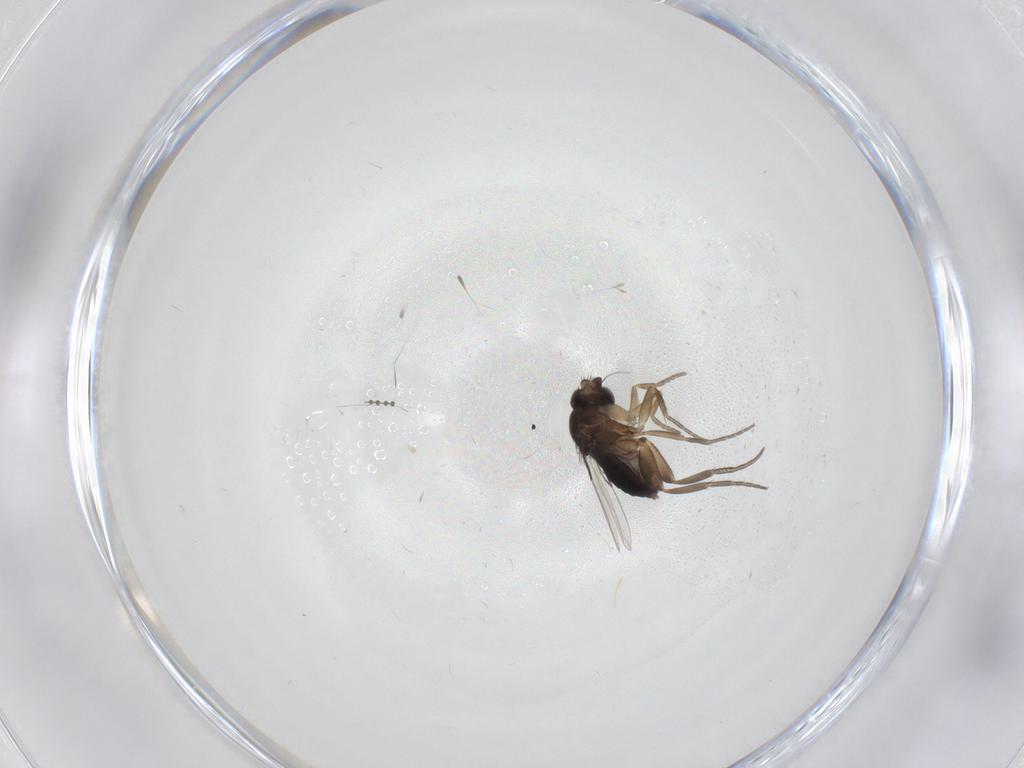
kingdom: Animalia
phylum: Arthropoda
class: Insecta
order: Diptera
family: Phoridae
